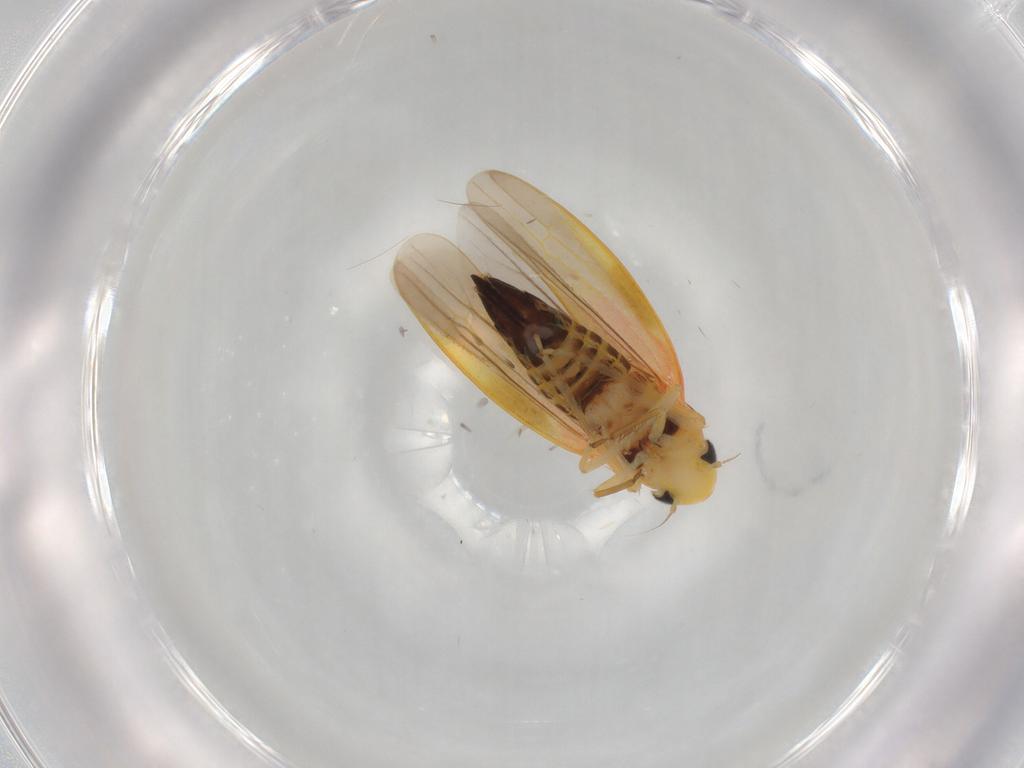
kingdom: Animalia
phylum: Arthropoda
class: Insecta
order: Hemiptera
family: Cicadellidae
